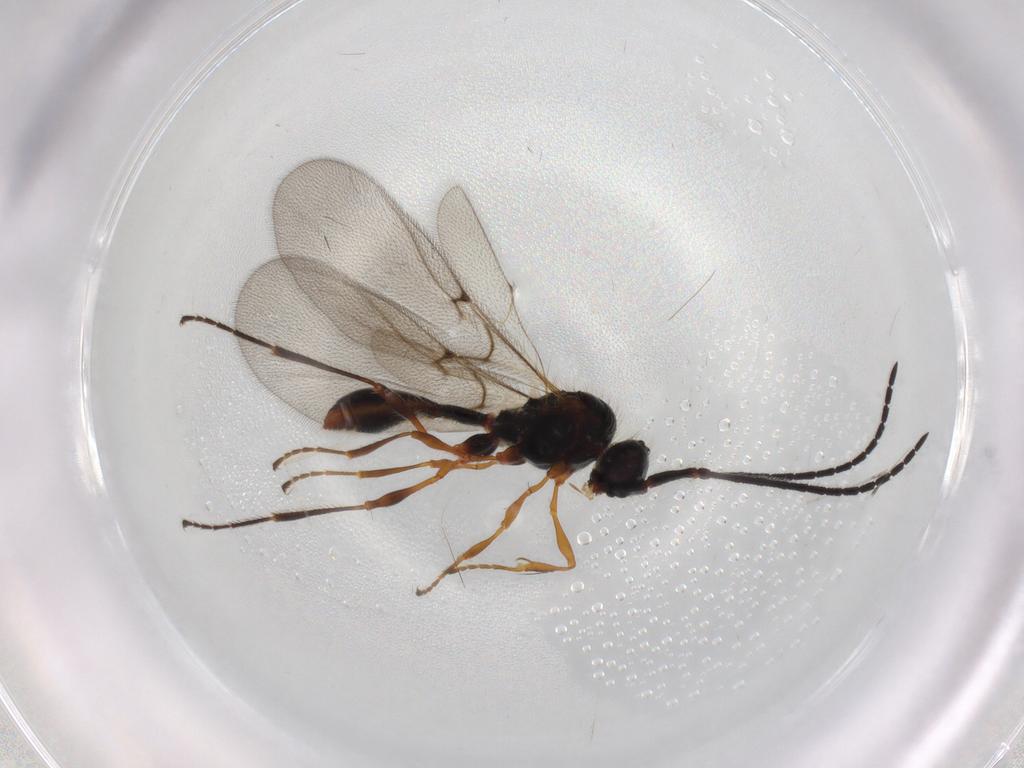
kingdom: Animalia
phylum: Arthropoda
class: Insecta
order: Hymenoptera
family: Diapriidae
